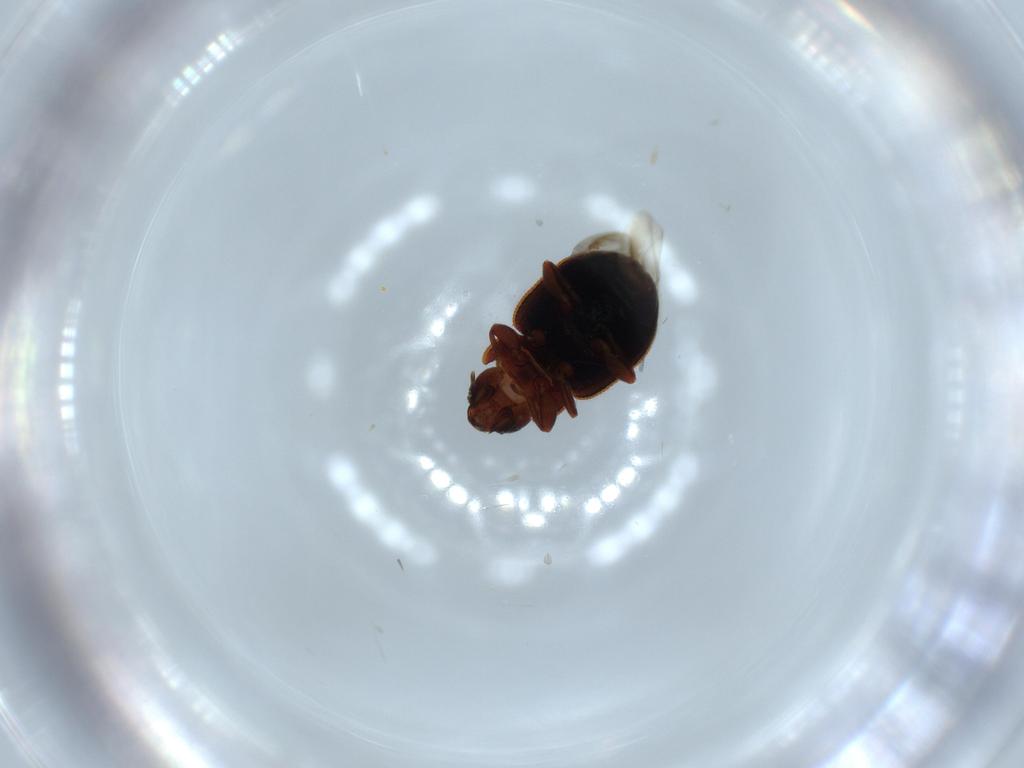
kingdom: Animalia
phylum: Arthropoda
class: Insecta
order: Coleoptera
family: Coccinellidae
